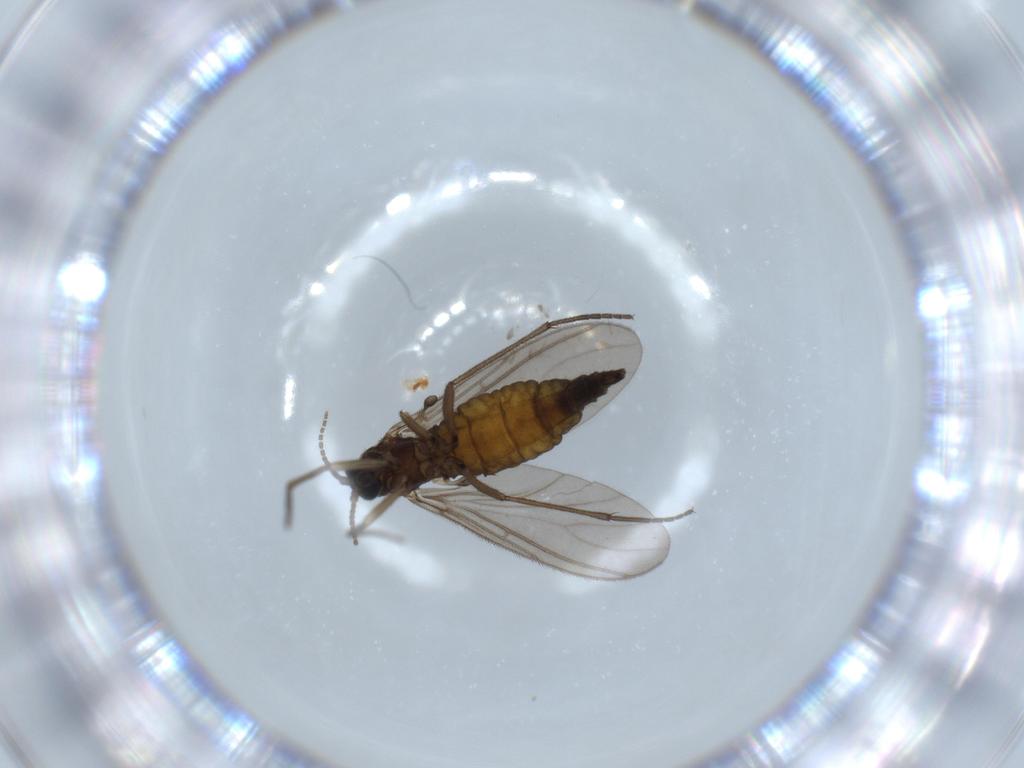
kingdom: Animalia
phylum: Arthropoda
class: Insecta
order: Diptera
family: Sciaridae
